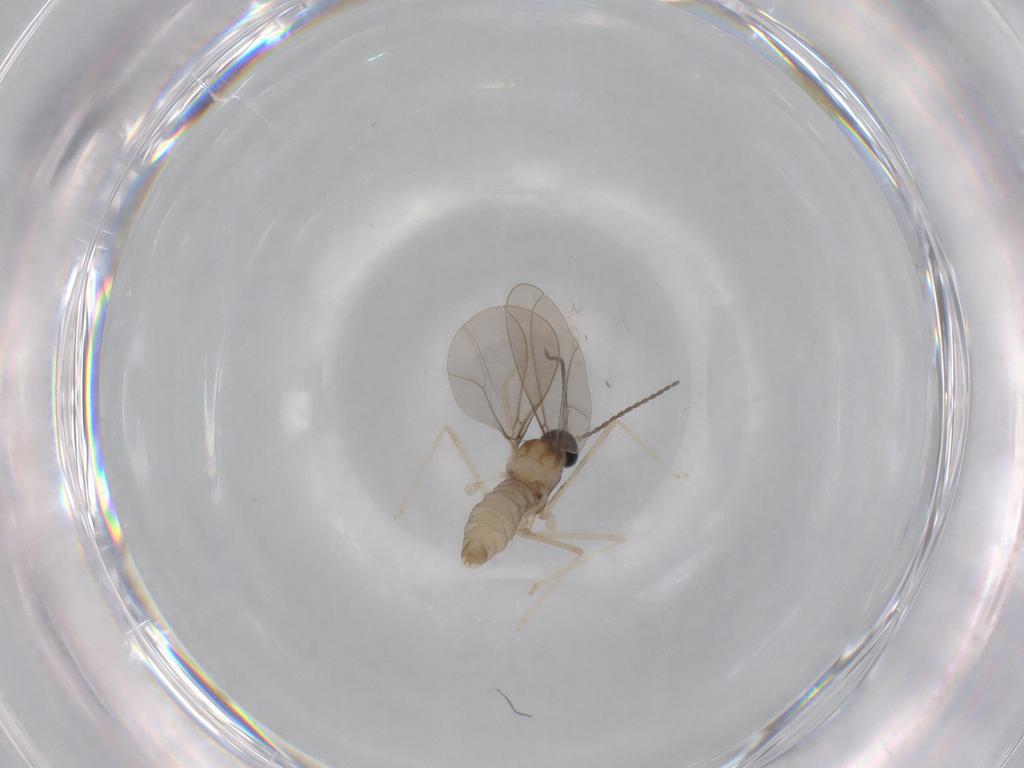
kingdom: Animalia
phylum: Arthropoda
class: Insecta
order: Diptera
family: Cecidomyiidae
